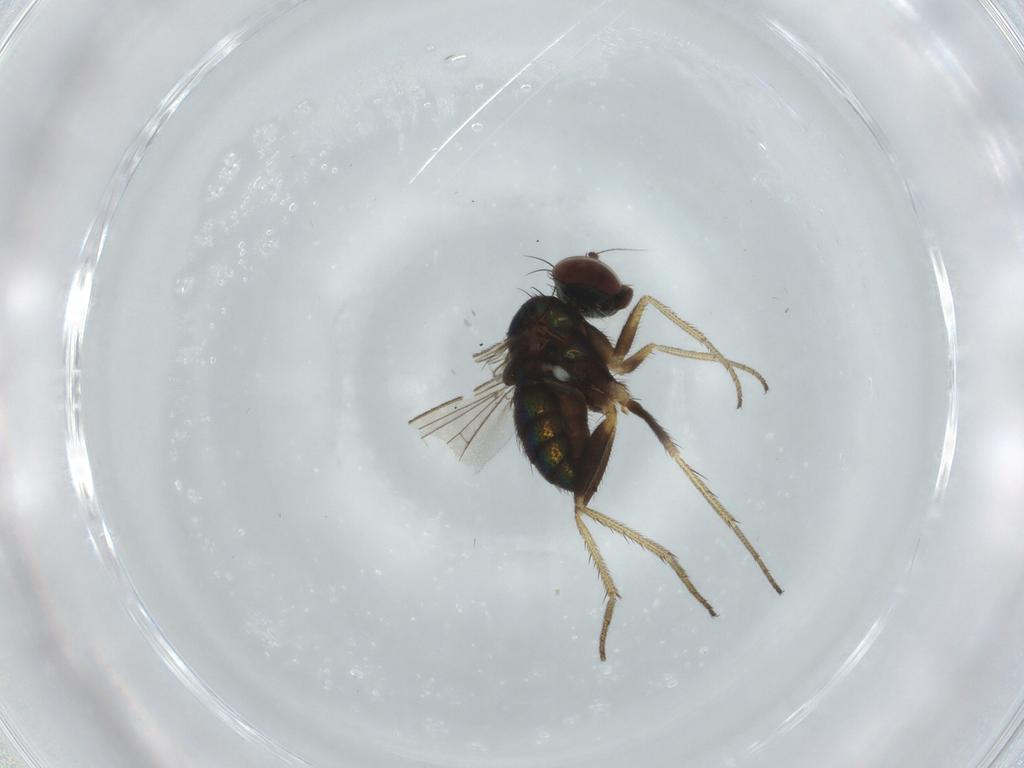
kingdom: Animalia
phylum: Arthropoda
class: Insecta
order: Diptera
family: Dolichopodidae
